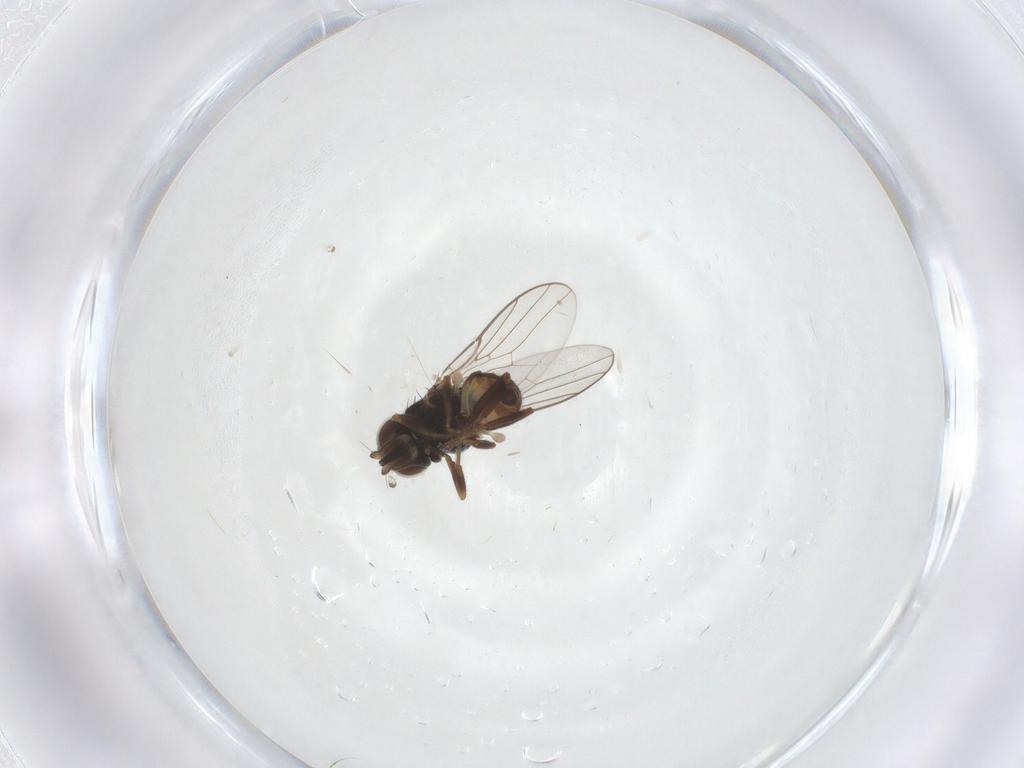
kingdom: Animalia
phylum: Arthropoda
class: Insecta
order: Diptera
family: Chloropidae
